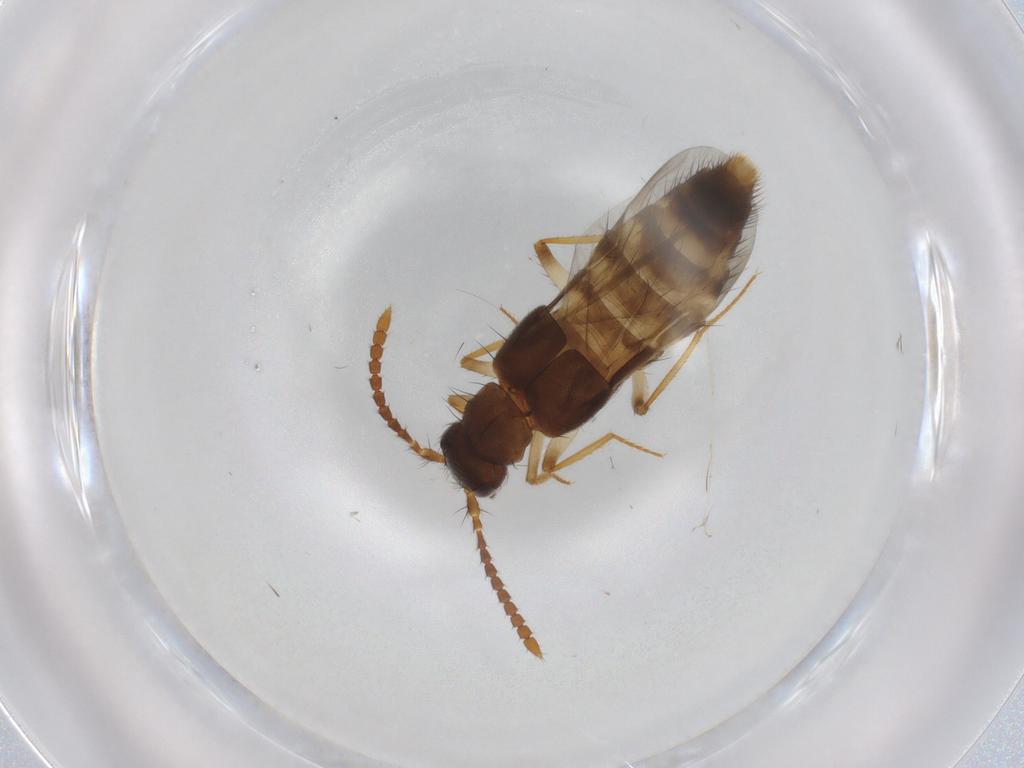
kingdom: Animalia
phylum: Arthropoda
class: Insecta
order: Coleoptera
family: Staphylinidae
